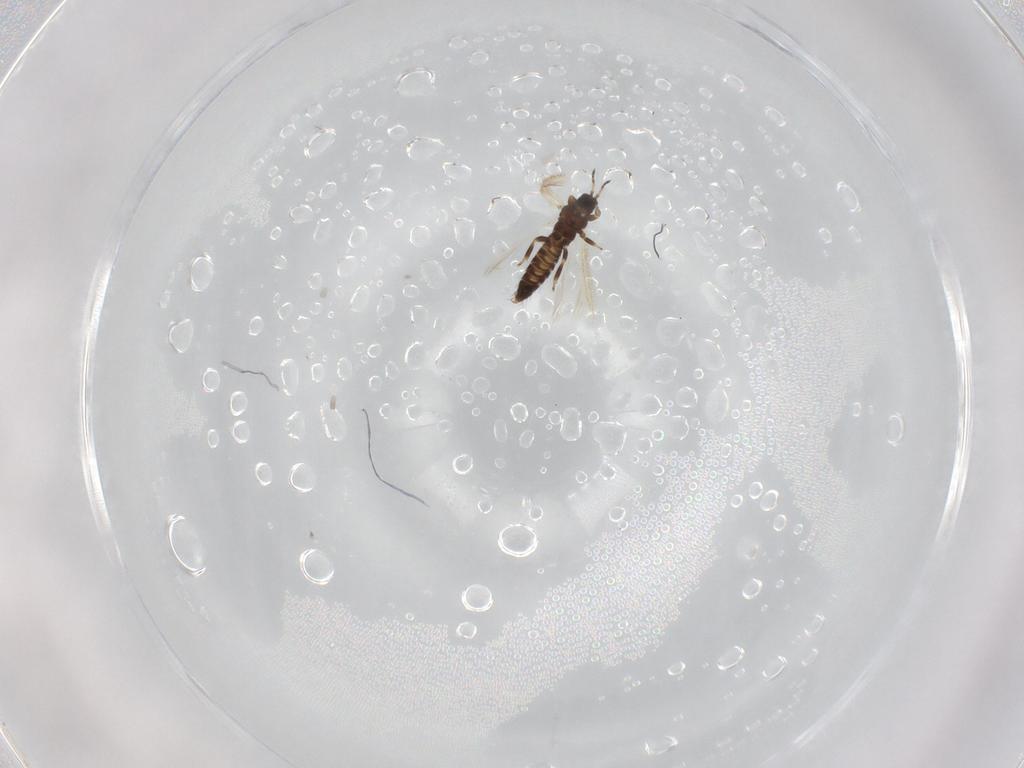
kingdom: Animalia
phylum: Arthropoda
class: Insecta
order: Thysanoptera
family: Thripidae
